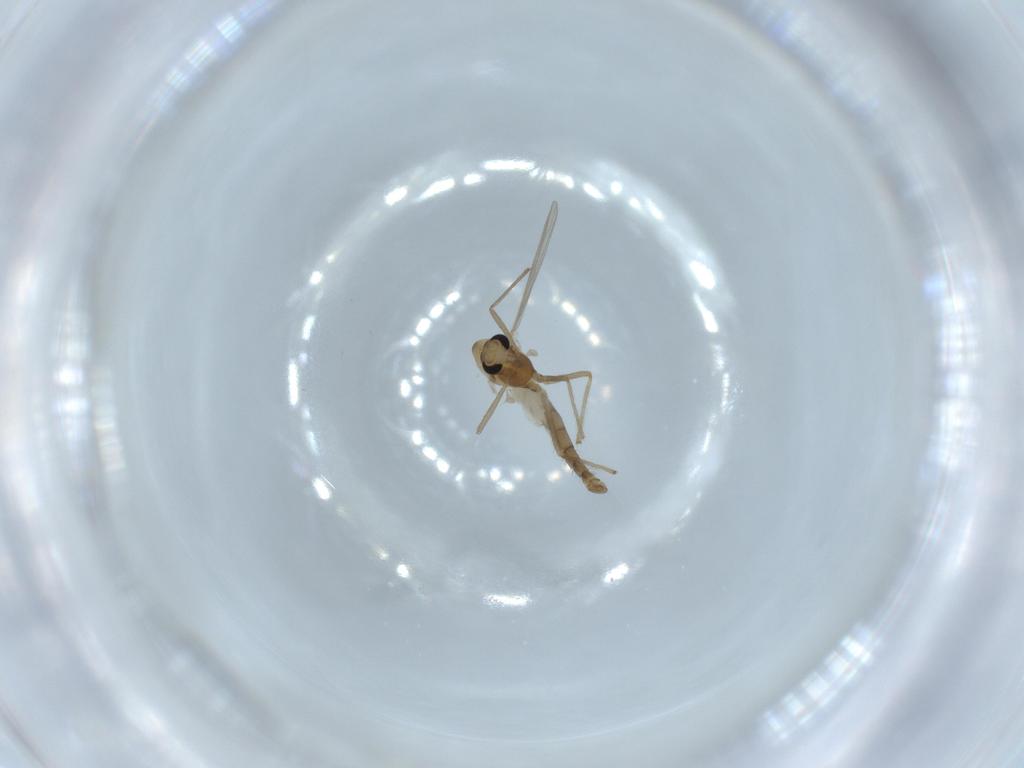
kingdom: Animalia
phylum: Arthropoda
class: Insecta
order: Diptera
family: Chironomidae
